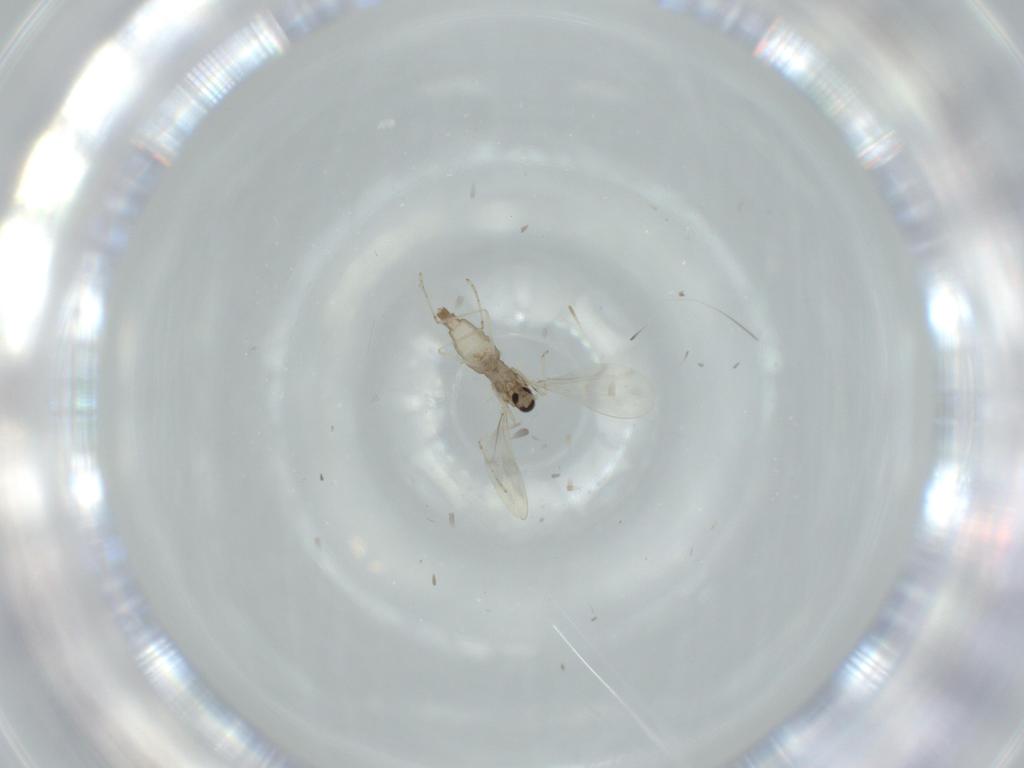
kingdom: Animalia
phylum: Arthropoda
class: Insecta
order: Diptera
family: Cecidomyiidae
